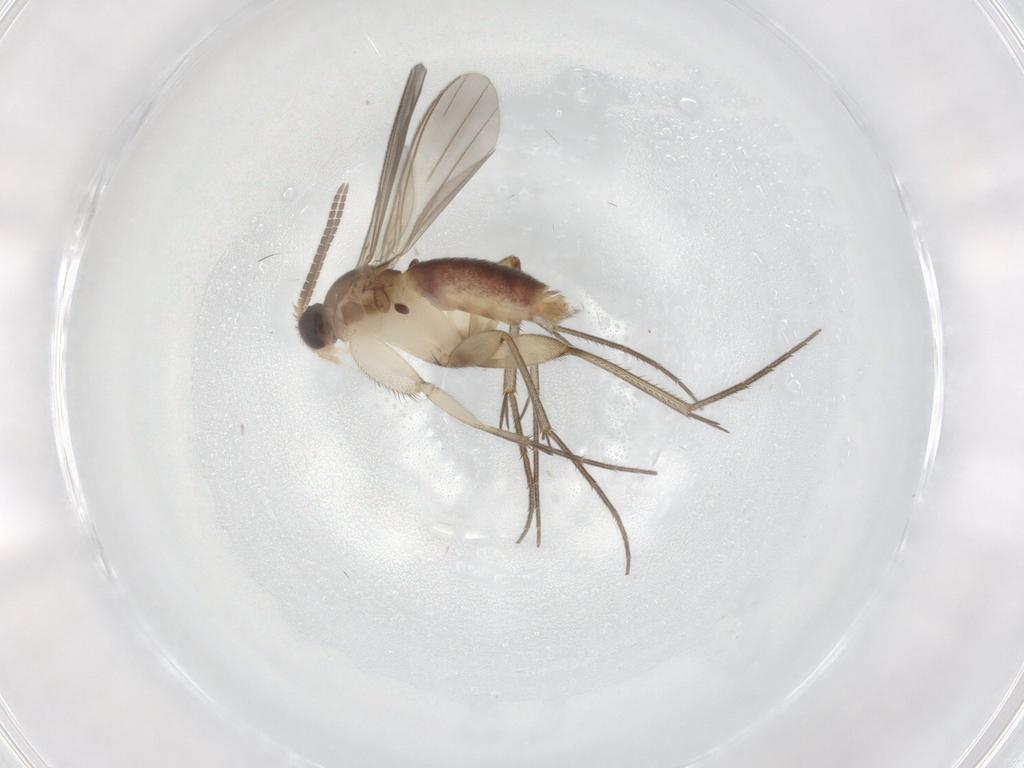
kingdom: Animalia
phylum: Arthropoda
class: Insecta
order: Diptera
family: Mycetophilidae
